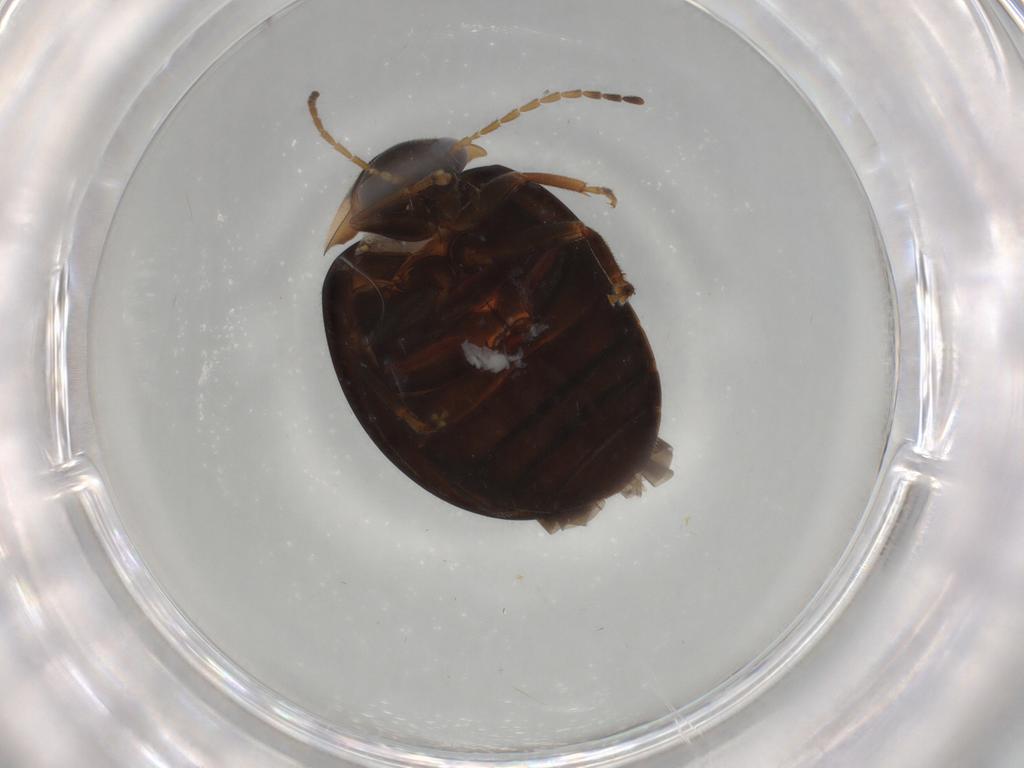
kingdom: Animalia
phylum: Arthropoda
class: Insecta
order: Coleoptera
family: Scirtidae
